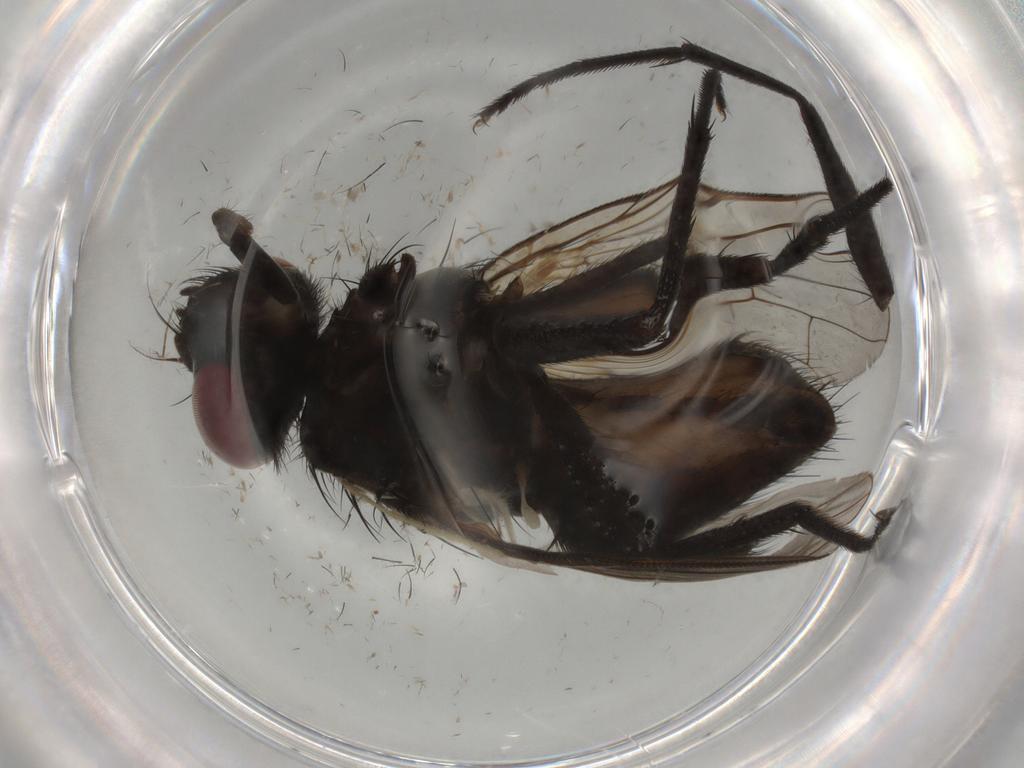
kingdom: Animalia
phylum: Arthropoda
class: Insecta
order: Diptera
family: Muscidae
